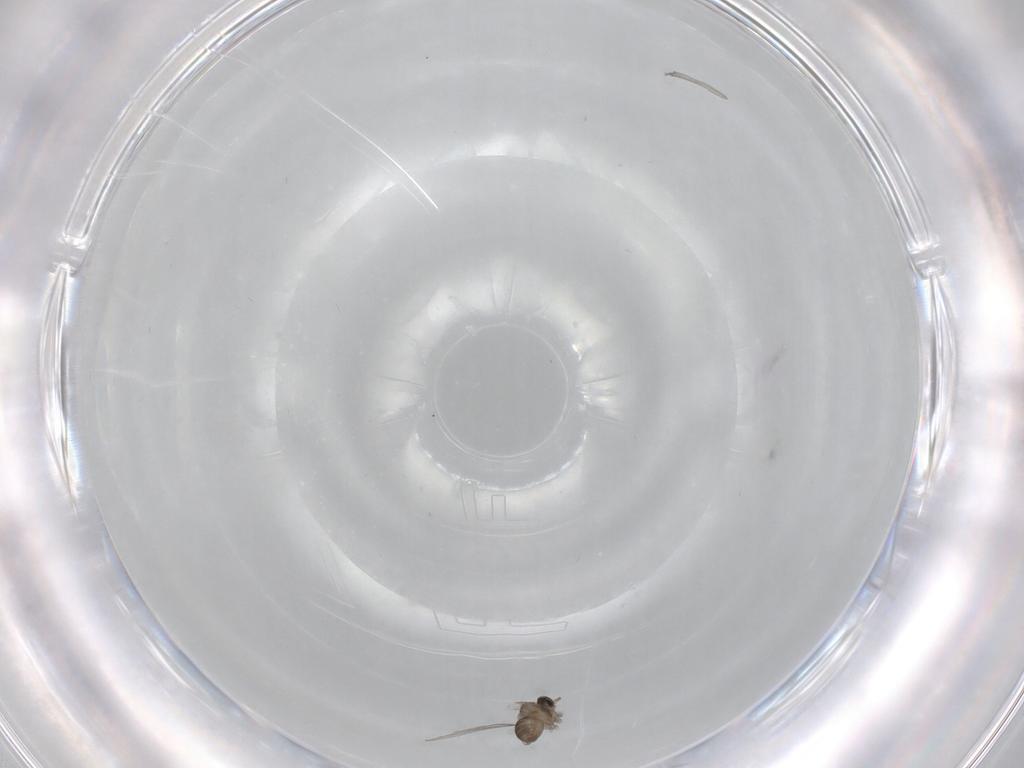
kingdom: Animalia
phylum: Arthropoda
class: Insecta
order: Diptera
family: Cecidomyiidae
